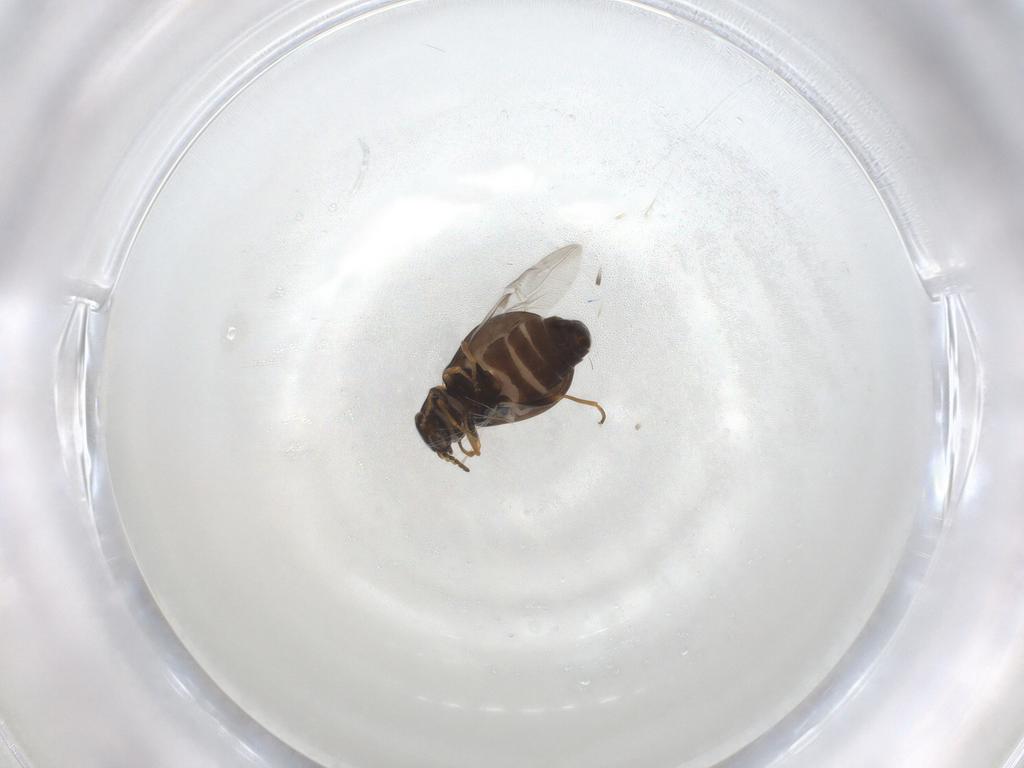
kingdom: Animalia
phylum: Arthropoda
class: Insecta
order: Coleoptera
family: Melyridae
